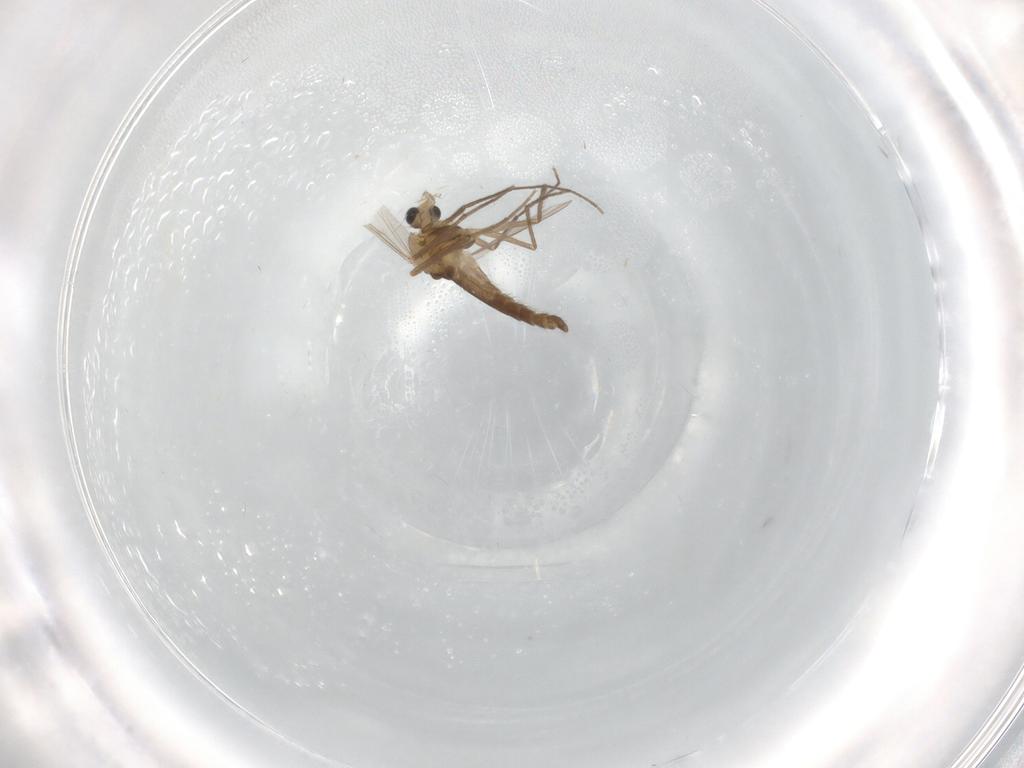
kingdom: Animalia
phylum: Arthropoda
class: Insecta
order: Diptera
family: Chironomidae
